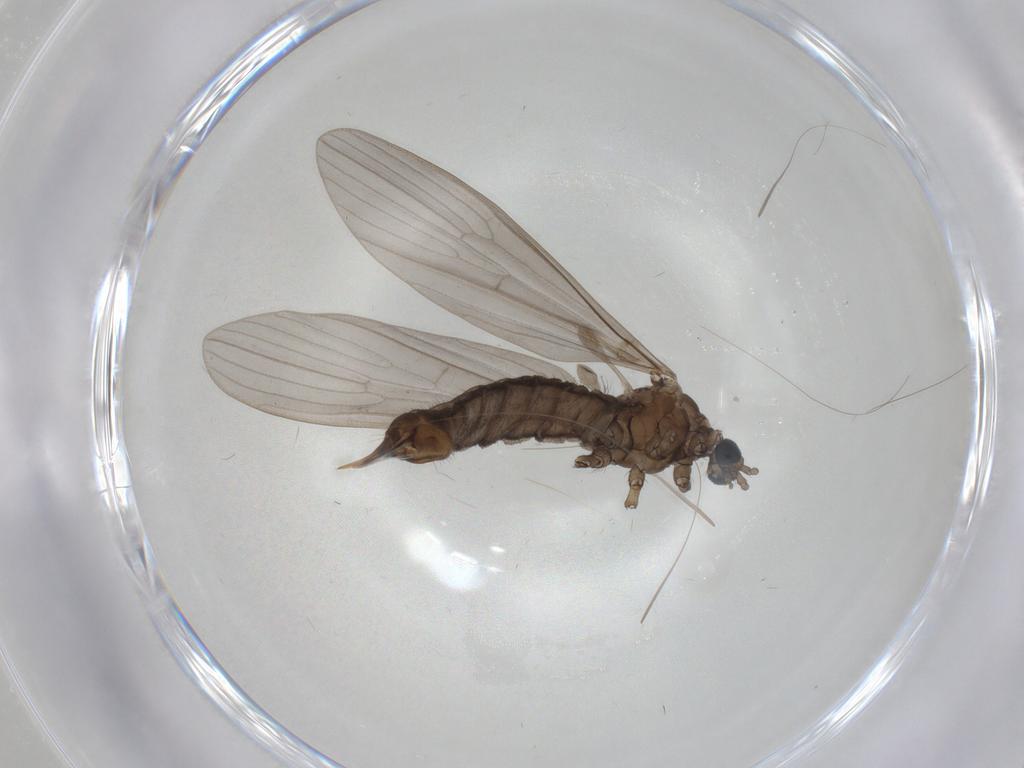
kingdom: Animalia
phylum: Arthropoda
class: Insecta
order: Diptera
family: Limoniidae
